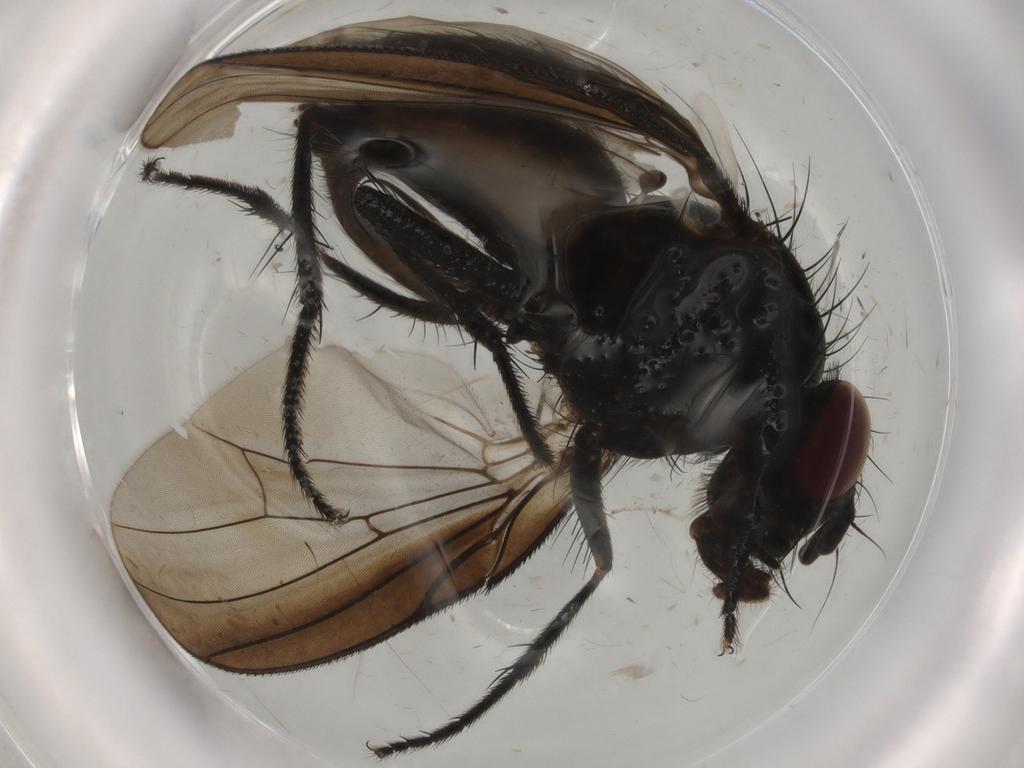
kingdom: Animalia
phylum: Arthropoda
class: Insecta
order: Diptera
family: Fannia
